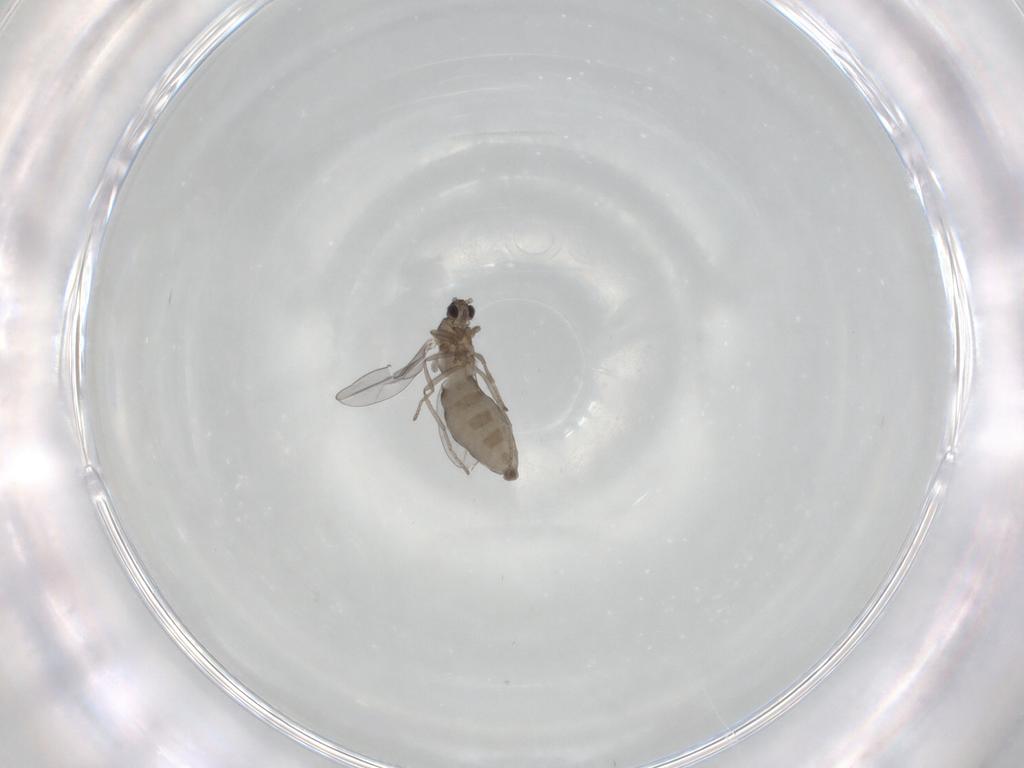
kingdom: Animalia
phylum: Arthropoda
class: Insecta
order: Diptera
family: Cecidomyiidae
